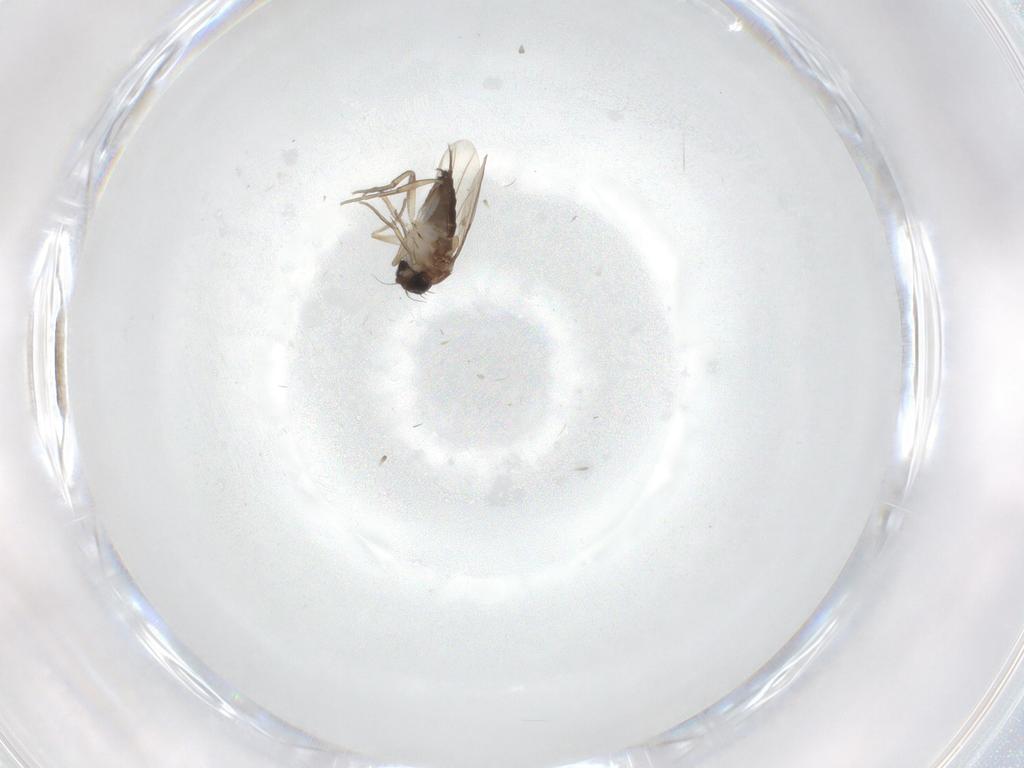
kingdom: Animalia
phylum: Arthropoda
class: Insecta
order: Diptera
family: Phoridae
